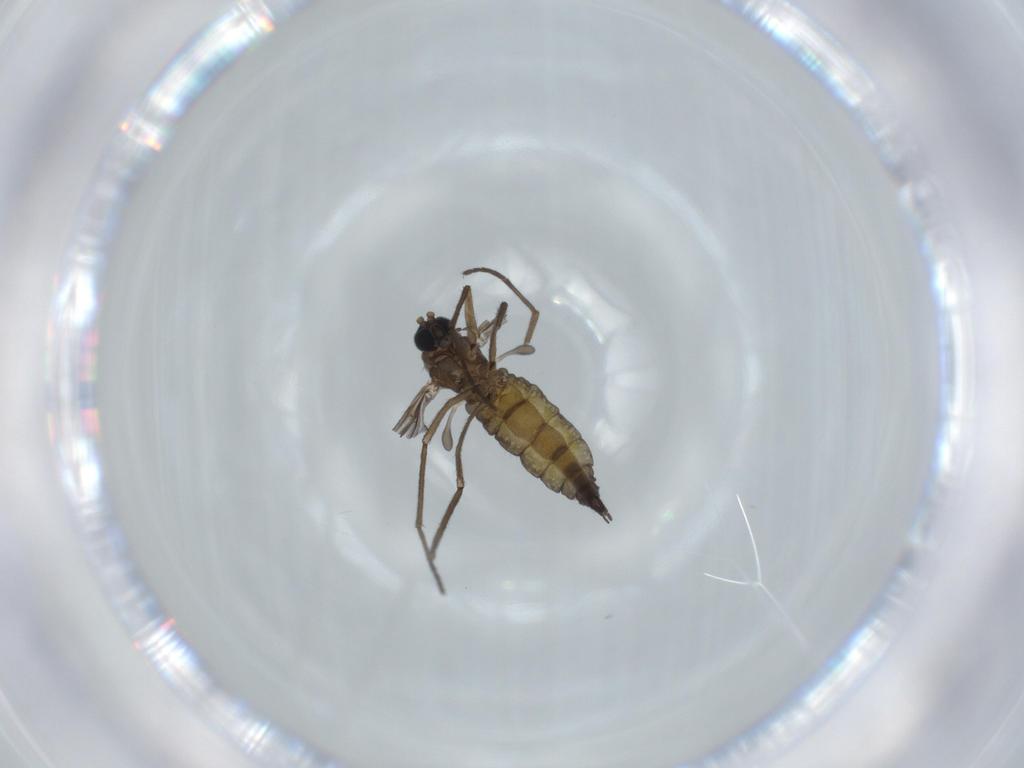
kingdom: Animalia
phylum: Arthropoda
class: Insecta
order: Diptera
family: Sciaridae
